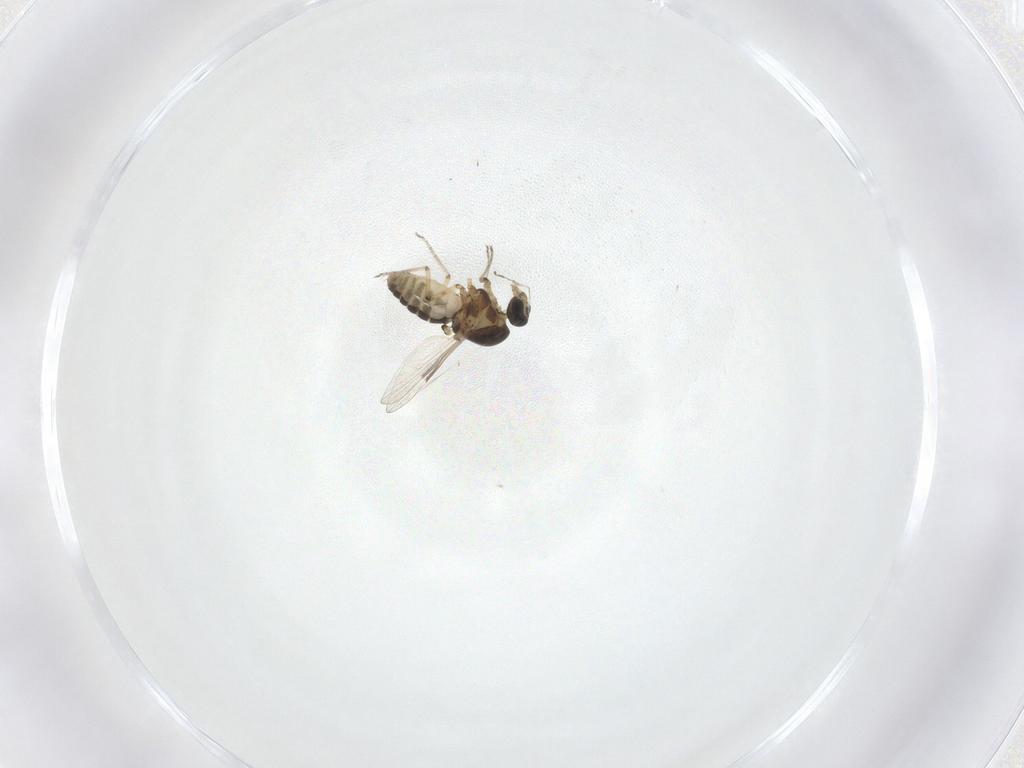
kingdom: Animalia
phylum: Arthropoda
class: Insecta
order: Diptera
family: Ceratopogonidae
